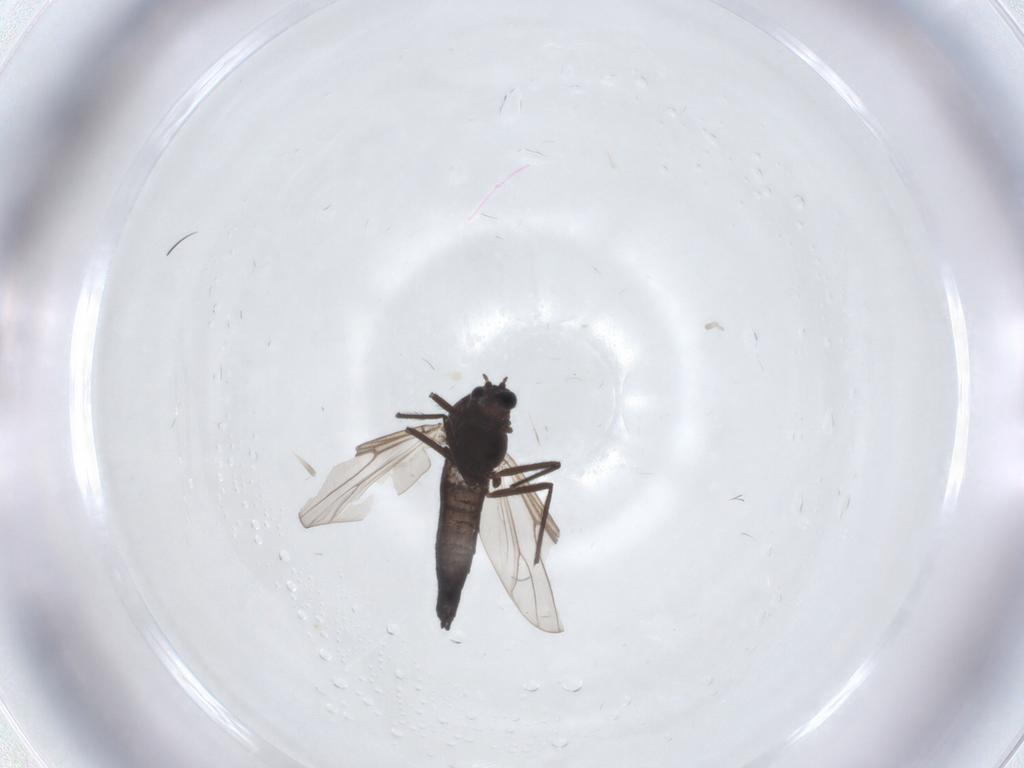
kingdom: Animalia
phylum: Arthropoda
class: Insecta
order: Diptera
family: Chironomidae
